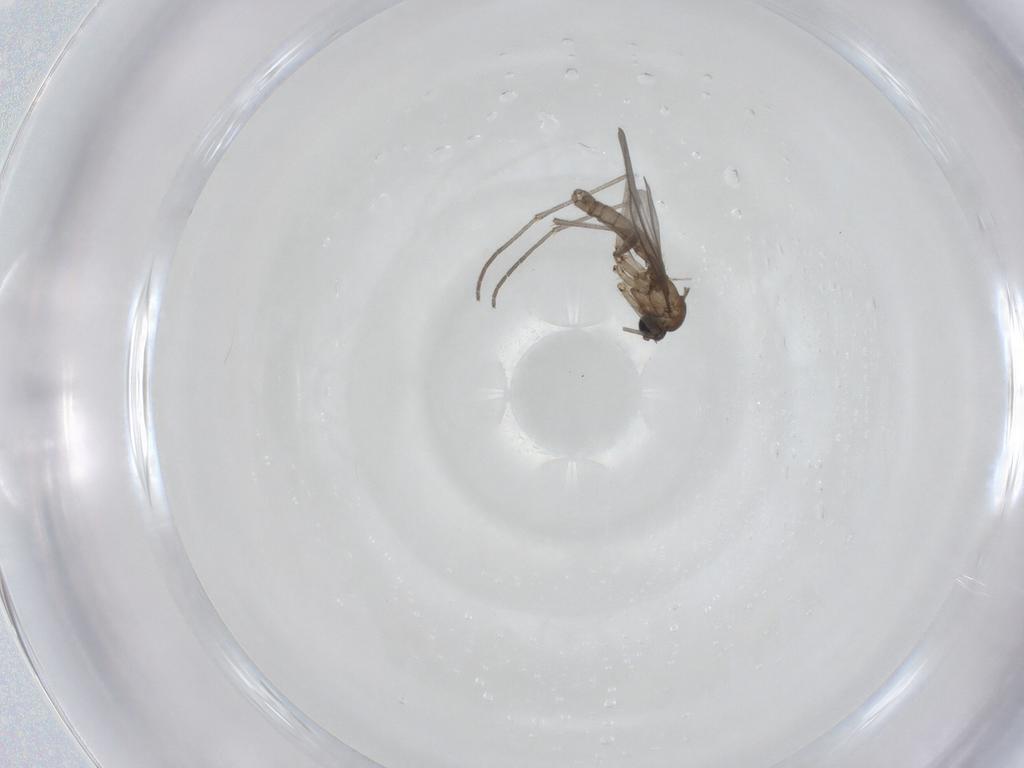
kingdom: Animalia
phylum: Arthropoda
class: Insecta
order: Diptera
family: Sciaridae
